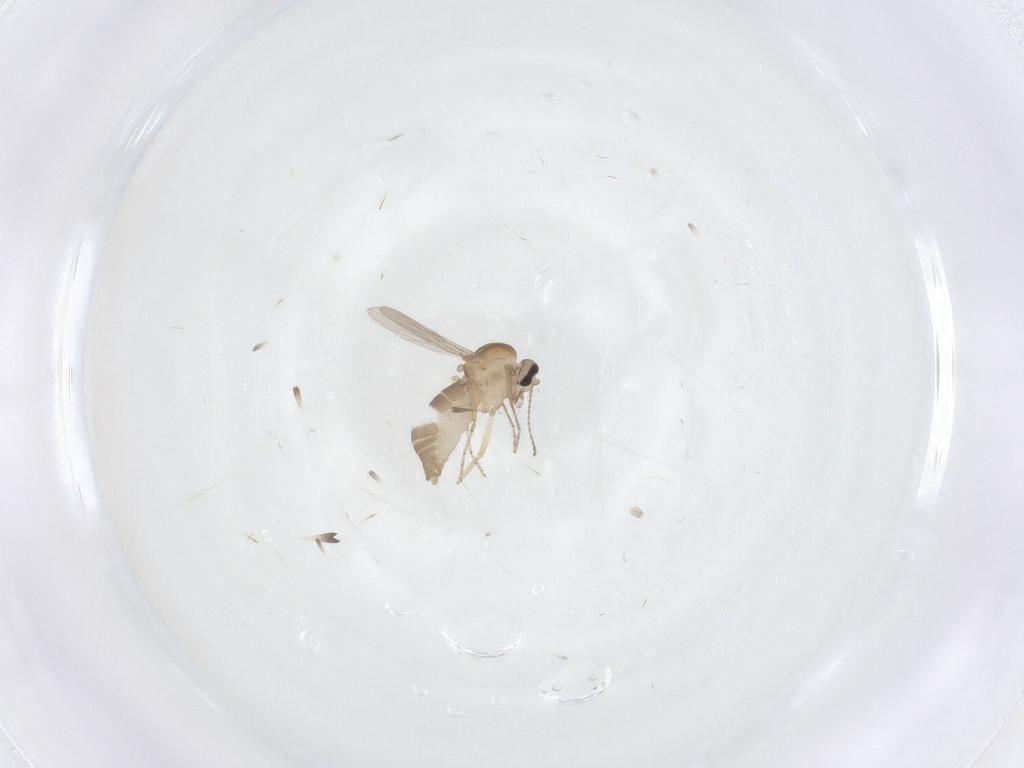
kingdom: Animalia
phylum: Arthropoda
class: Insecta
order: Diptera
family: Ceratopogonidae
